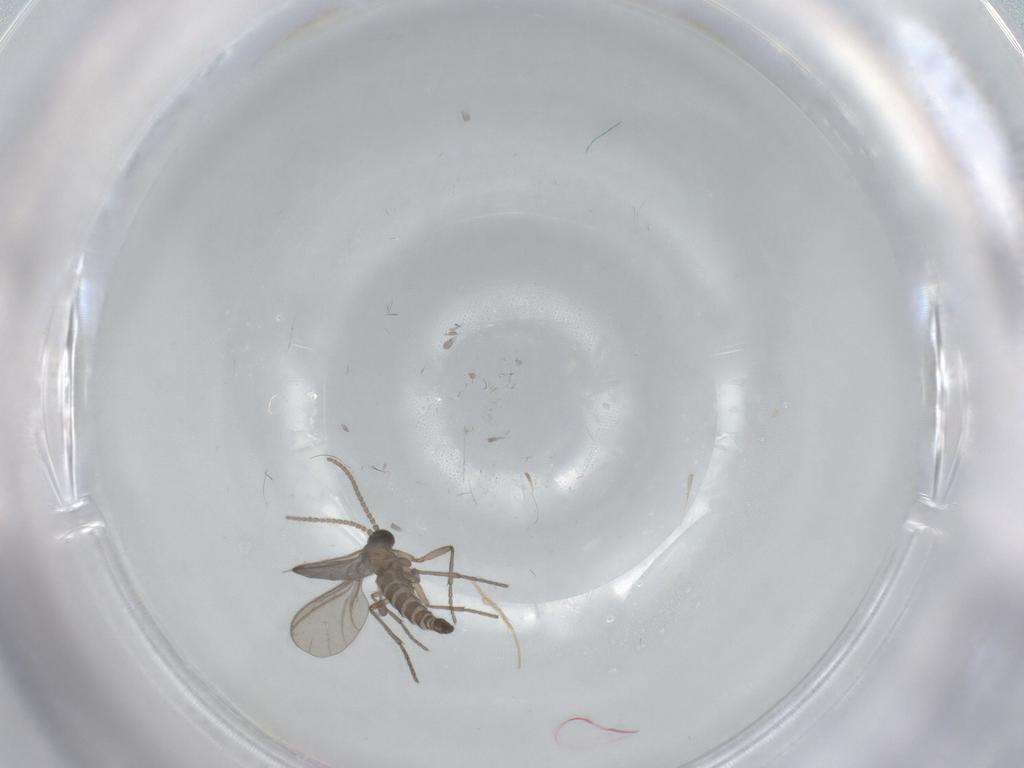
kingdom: Animalia
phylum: Arthropoda
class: Insecta
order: Diptera
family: Sciaridae
